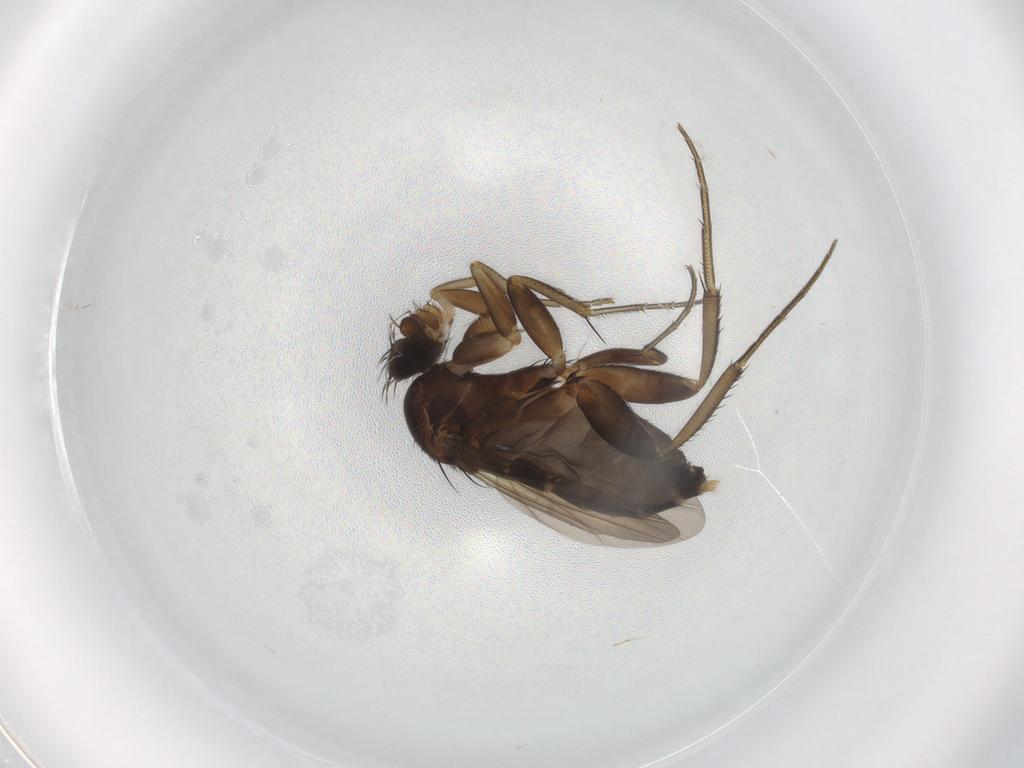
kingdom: Animalia
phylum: Arthropoda
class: Insecta
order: Diptera
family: Phoridae
